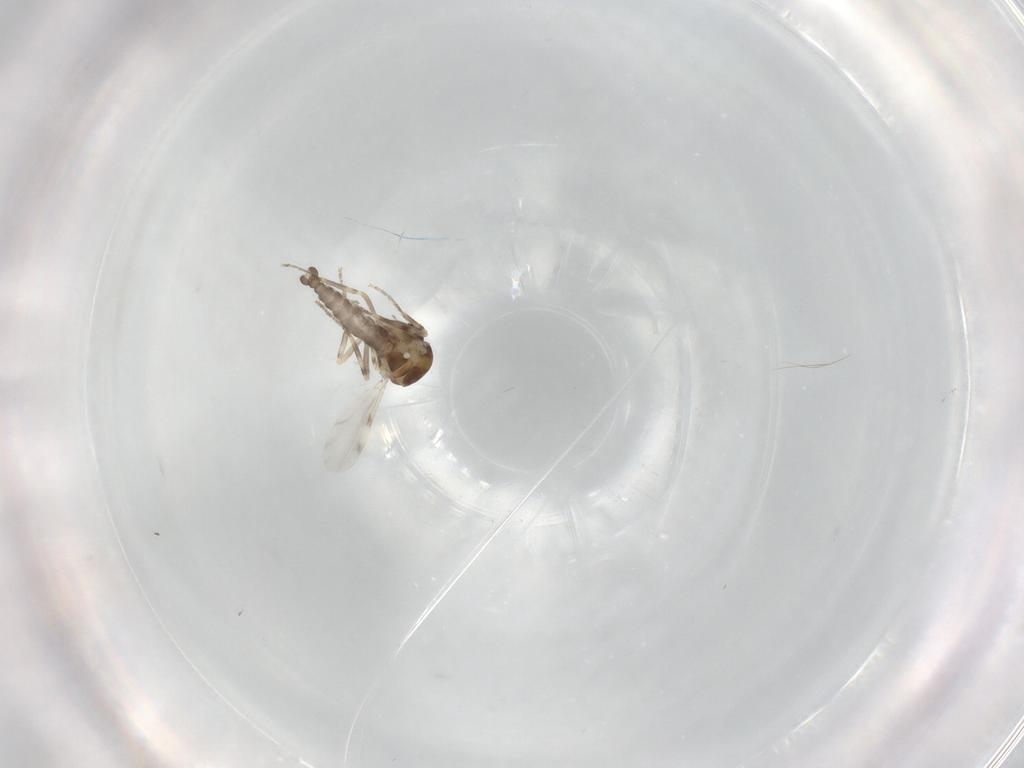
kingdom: Animalia
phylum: Arthropoda
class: Insecta
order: Diptera
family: Ceratopogonidae
